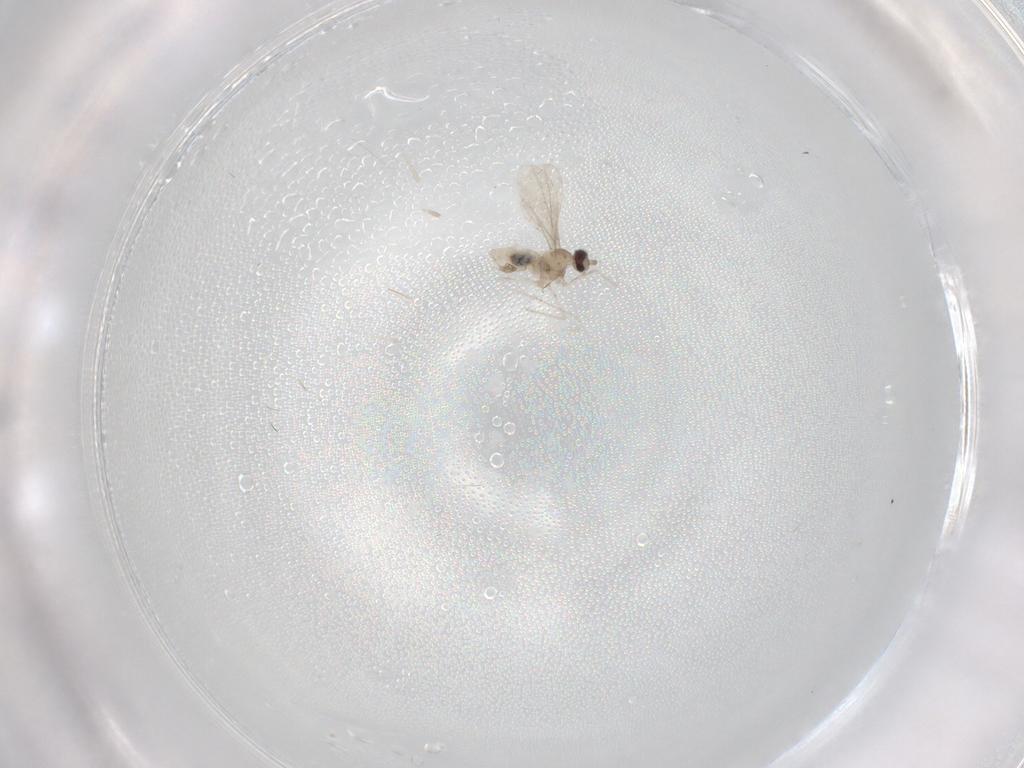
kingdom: Animalia
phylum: Arthropoda
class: Insecta
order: Diptera
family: Cecidomyiidae
